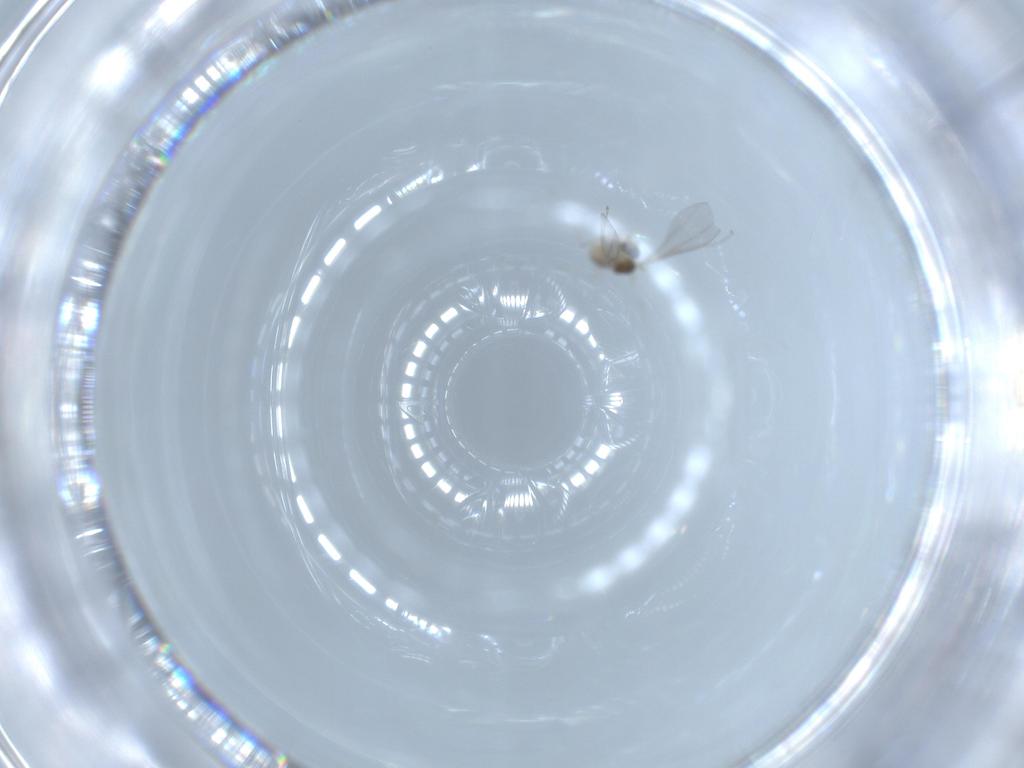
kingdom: Animalia
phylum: Arthropoda
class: Insecta
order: Diptera
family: Cecidomyiidae
